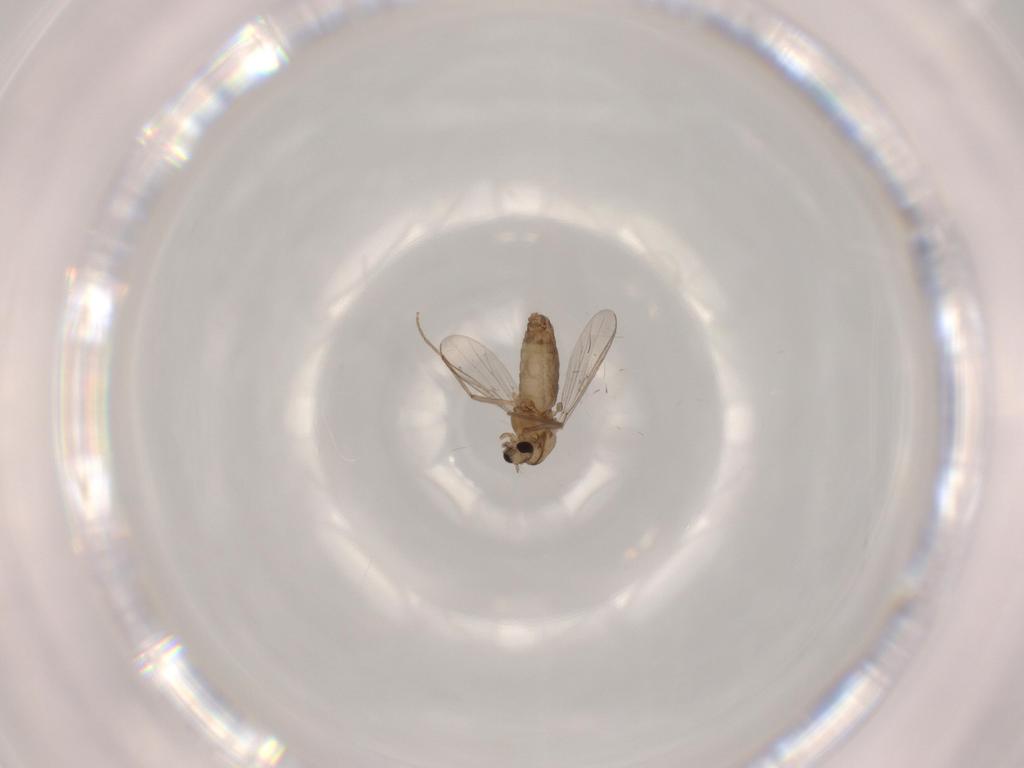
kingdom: Animalia
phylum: Arthropoda
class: Insecta
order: Diptera
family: Chironomidae
